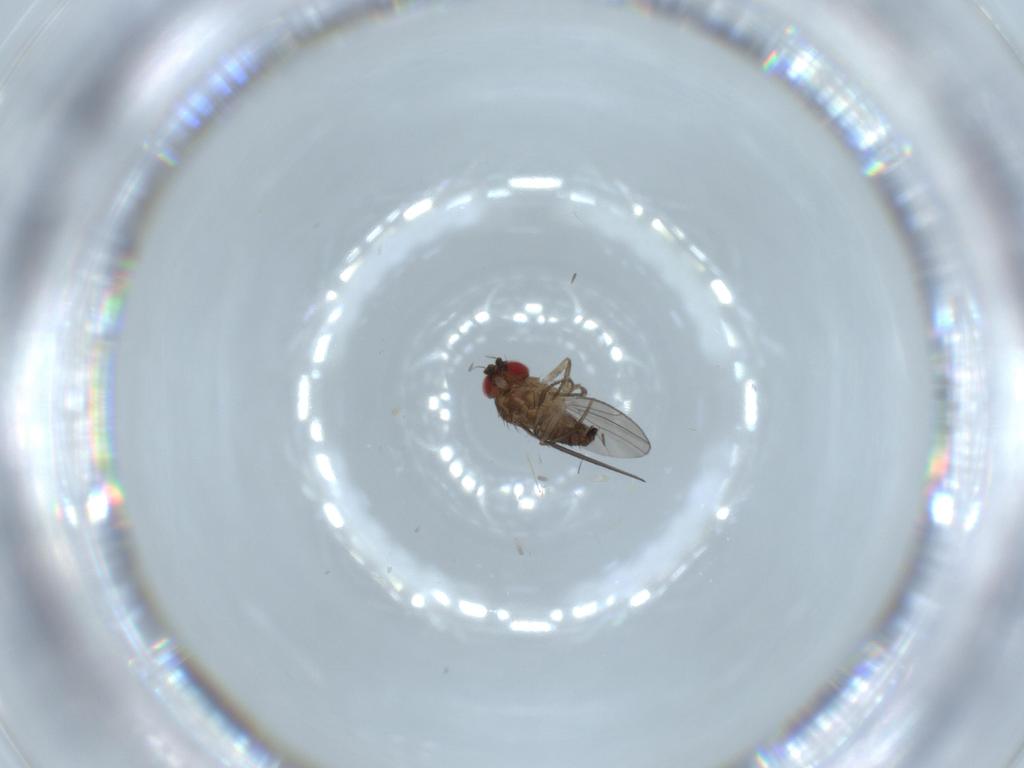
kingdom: Animalia
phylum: Arthropoda
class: Insecta
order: Diptera
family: Drosophilidae
